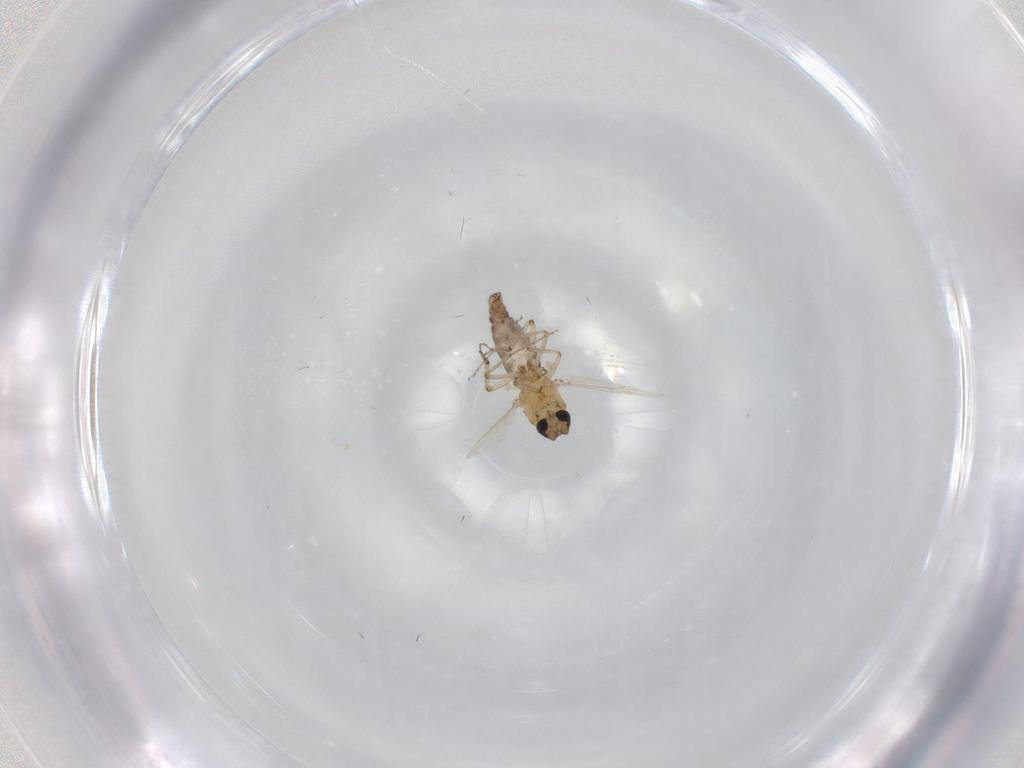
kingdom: Animalia
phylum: Arthropoda
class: Insecta
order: Diptera
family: Ceratopogonidae
